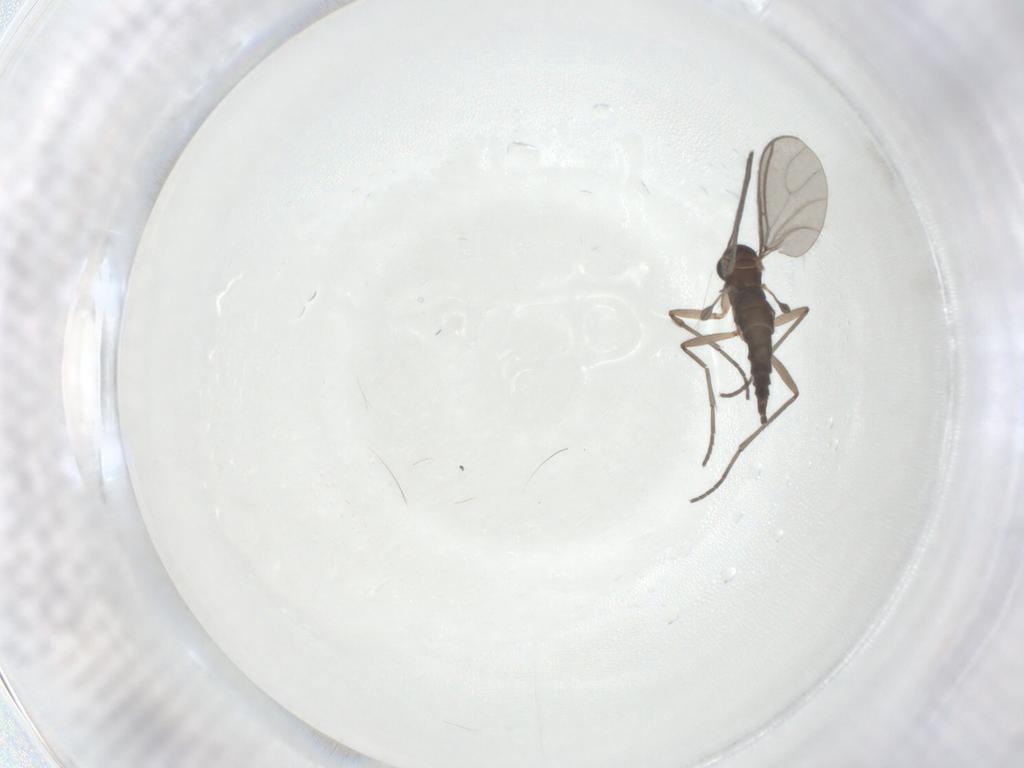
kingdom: Animalia
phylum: Arthropoda
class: Insecta
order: Diptera
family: Sciaridae
